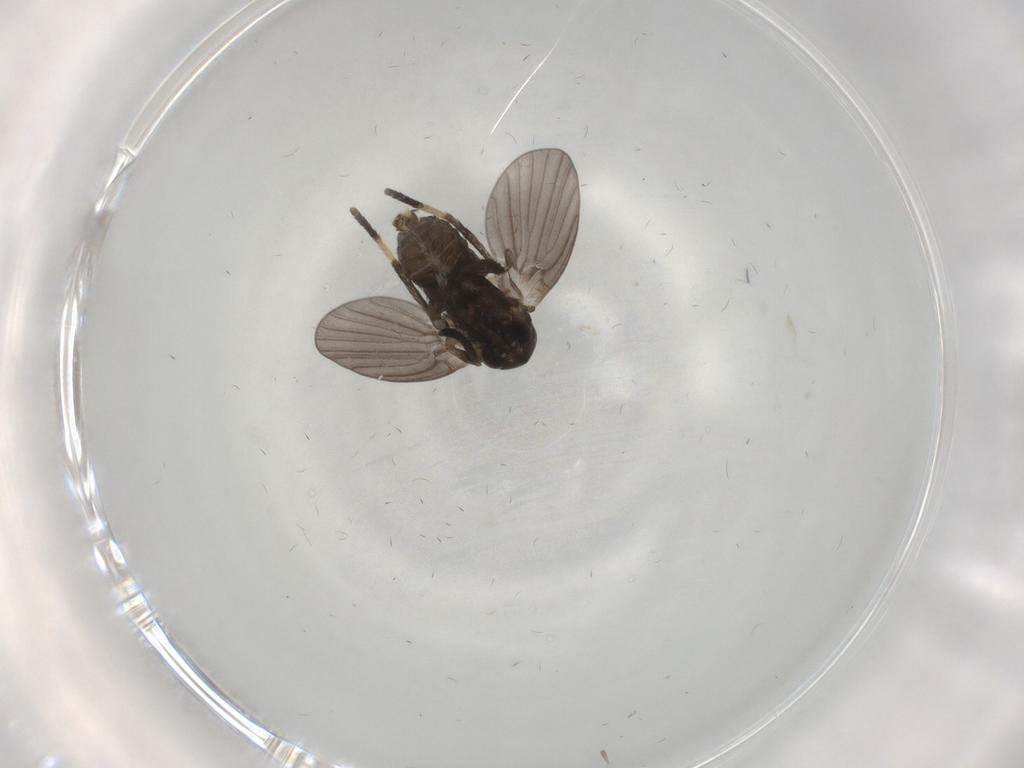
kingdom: Animalia
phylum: Arthropoda
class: Insecta
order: Diptera
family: Psychodidae
